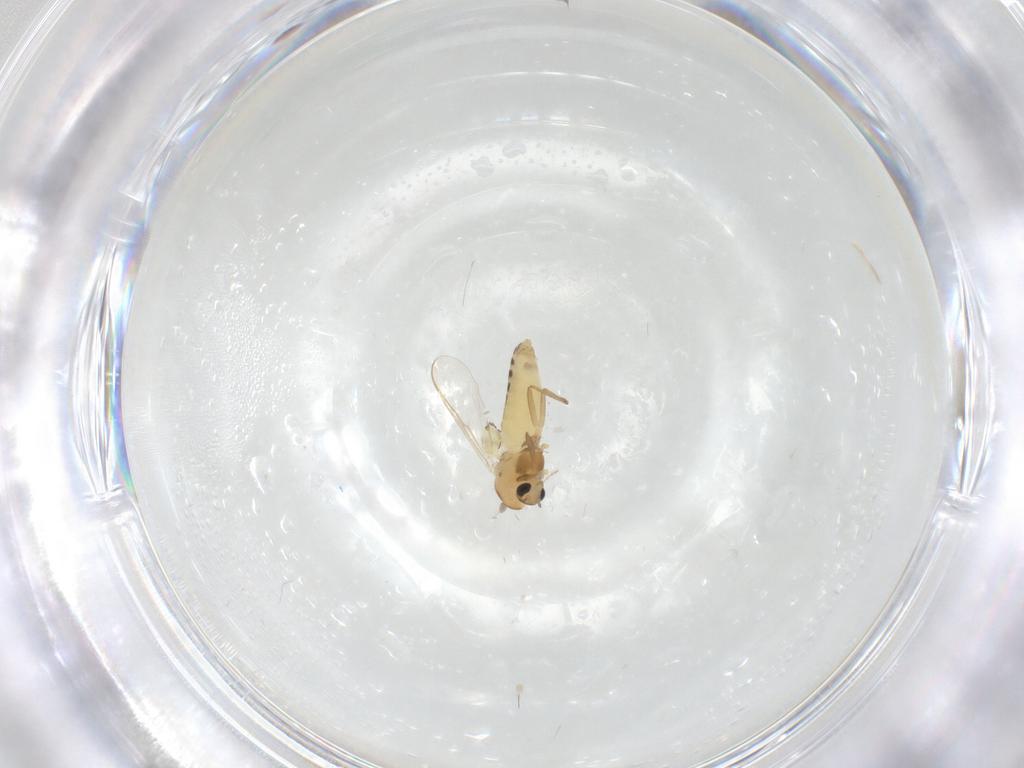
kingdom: Animalia
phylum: Arthropoda
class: Insecta
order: Diptera
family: Chironomidae
